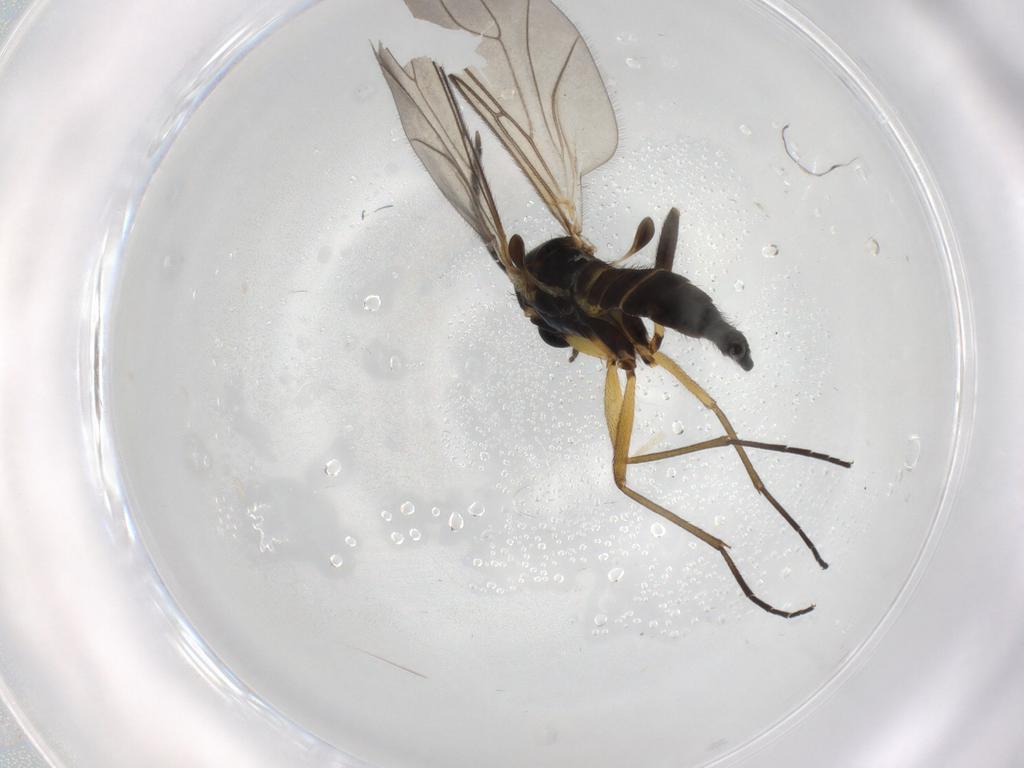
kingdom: Animalia
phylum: Arthropoda
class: Insecta
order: Diptera
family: Sciaridae
